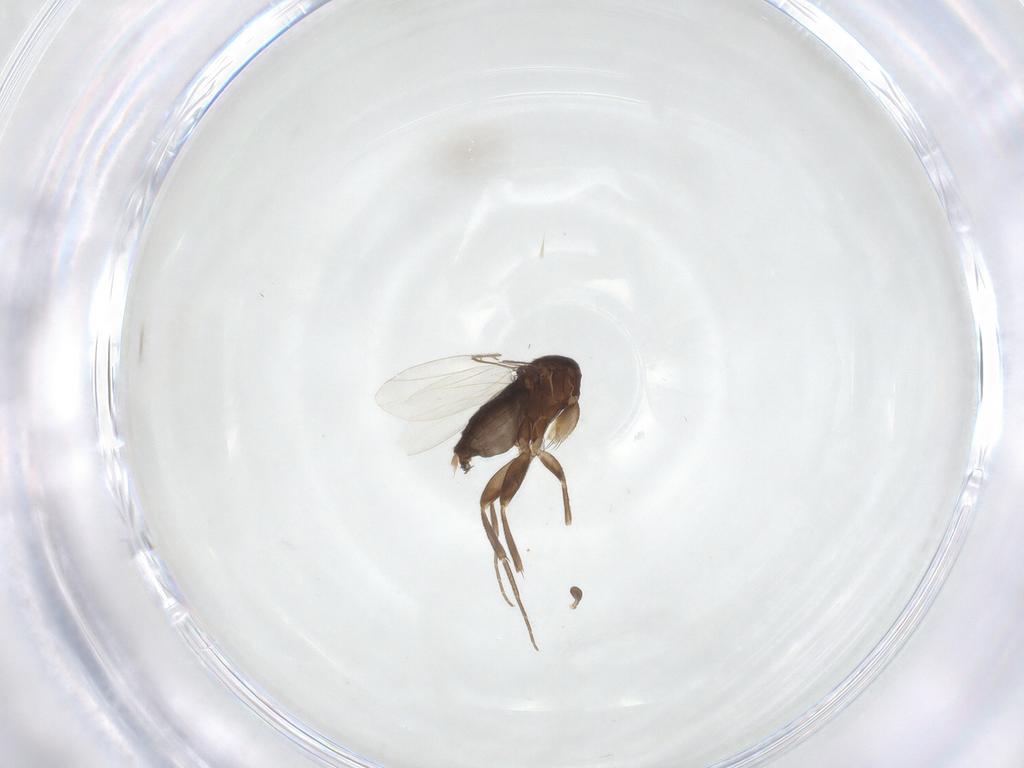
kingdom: Animalia
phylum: Arthropoda
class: Insecta
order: Diptera
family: Phoridae
